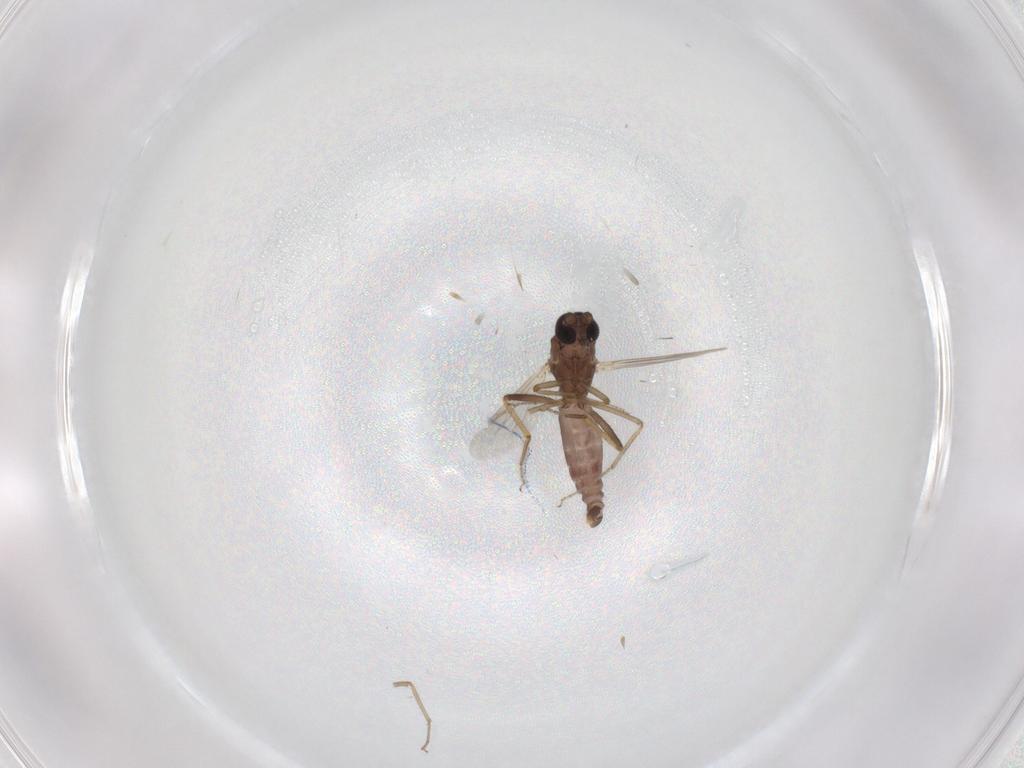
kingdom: Animalia
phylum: Arthropoda
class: Insecta
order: Diptera
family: Ceratopogonidae
